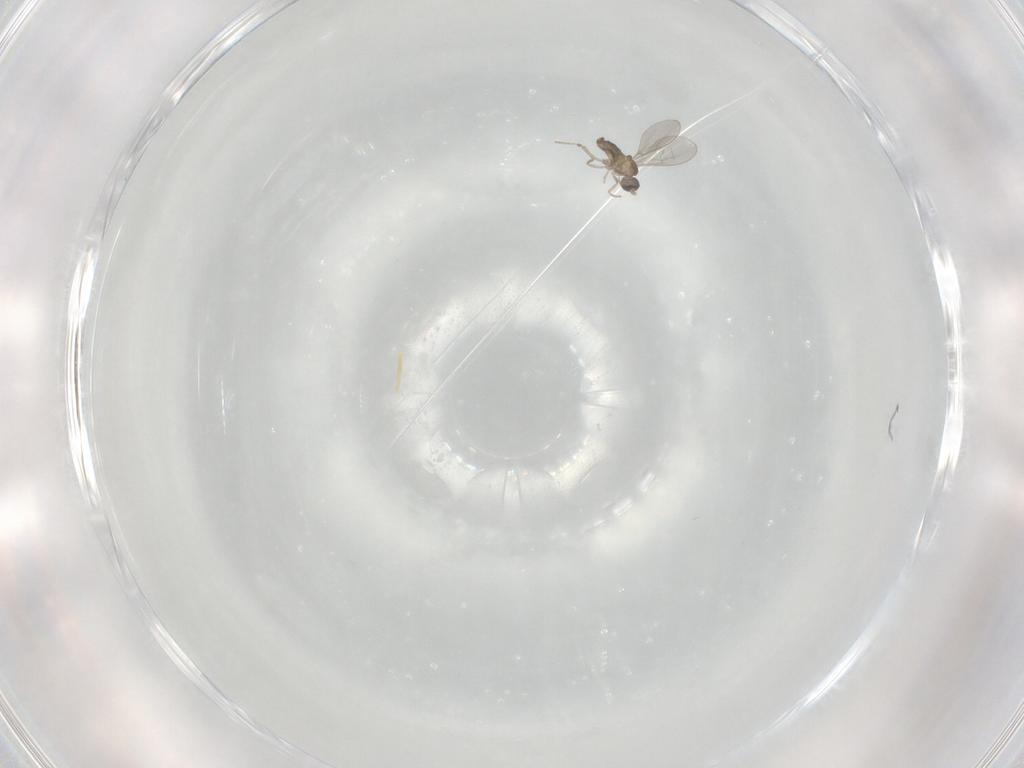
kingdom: Animalia
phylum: Arthropoda
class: Insecta
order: Diptera
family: Cecidomyiidae
